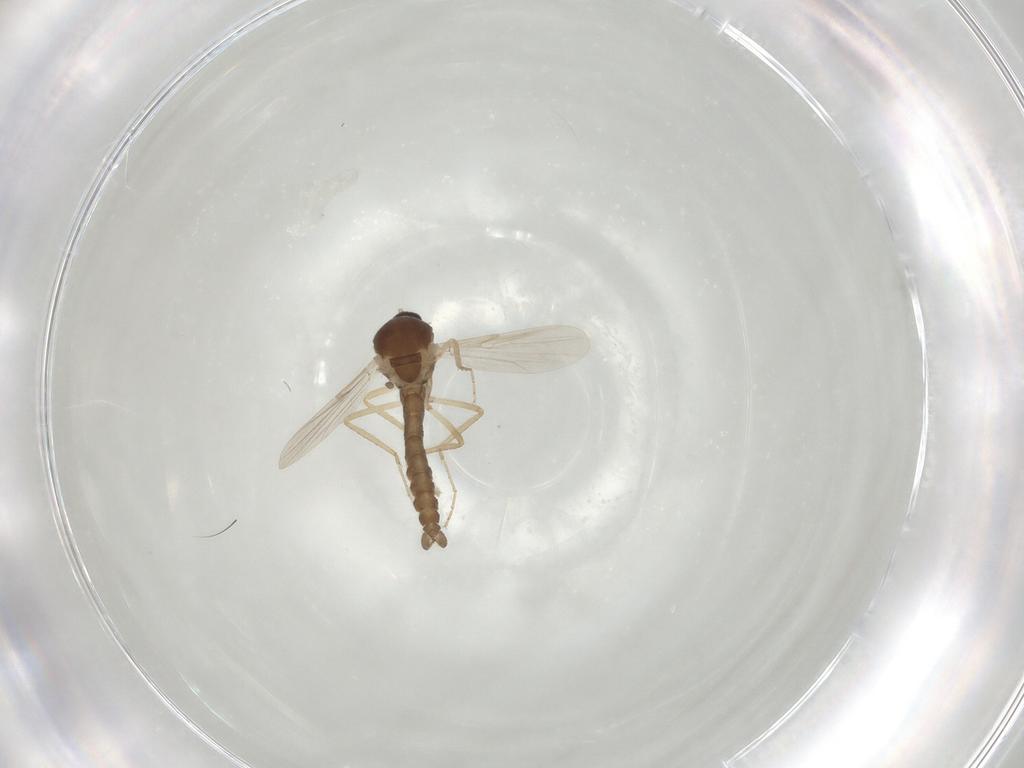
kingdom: Animalia
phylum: Arthropoda
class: Insecta
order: Diptera
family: Ceratopogonidae
